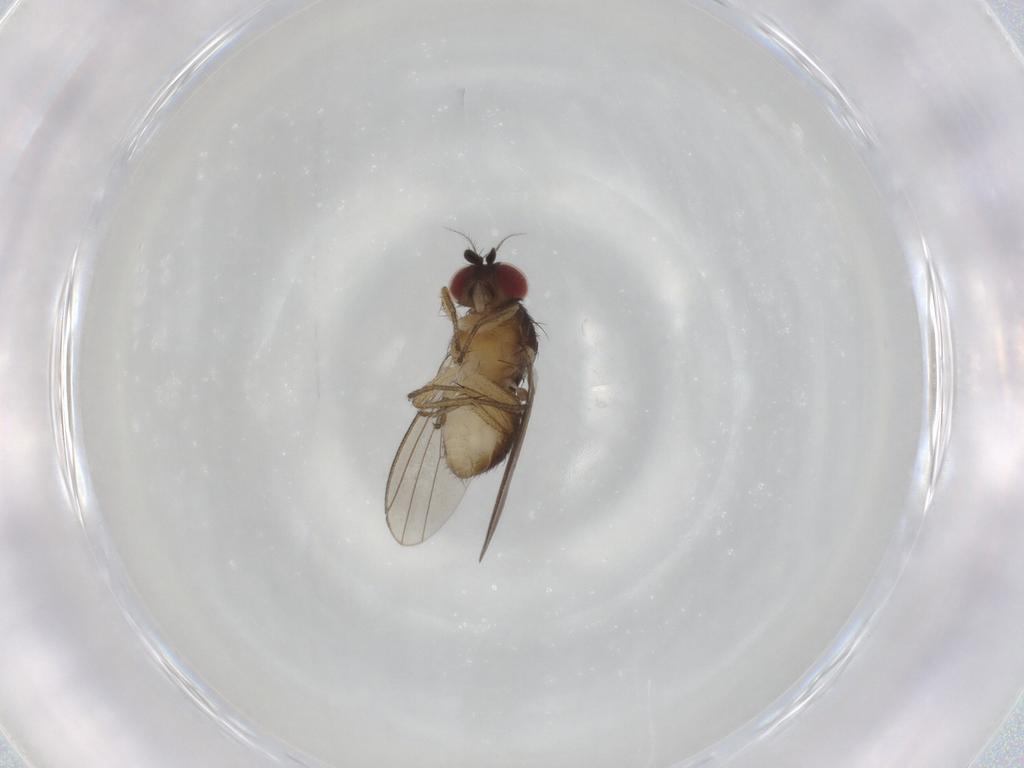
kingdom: Animalia
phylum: Arthropoda
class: Insecta
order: Diptera
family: Lauxaniidae
